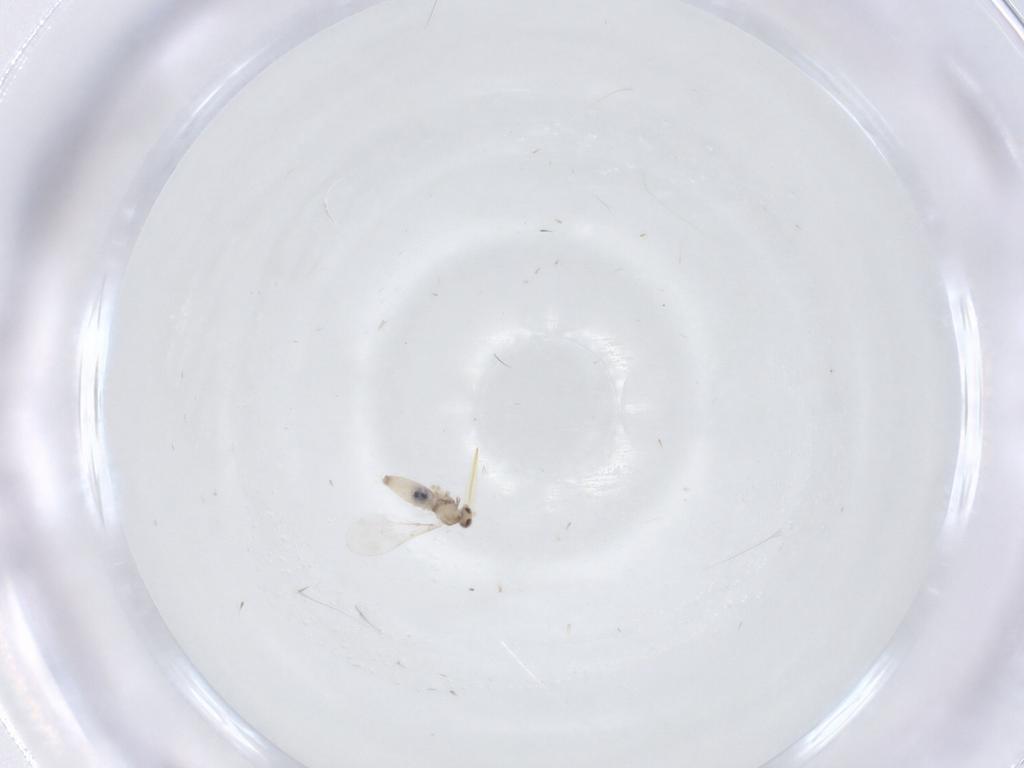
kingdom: Animalia
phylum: Arthropoda
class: Insecta
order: Diptera
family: Cecidomyiidae
